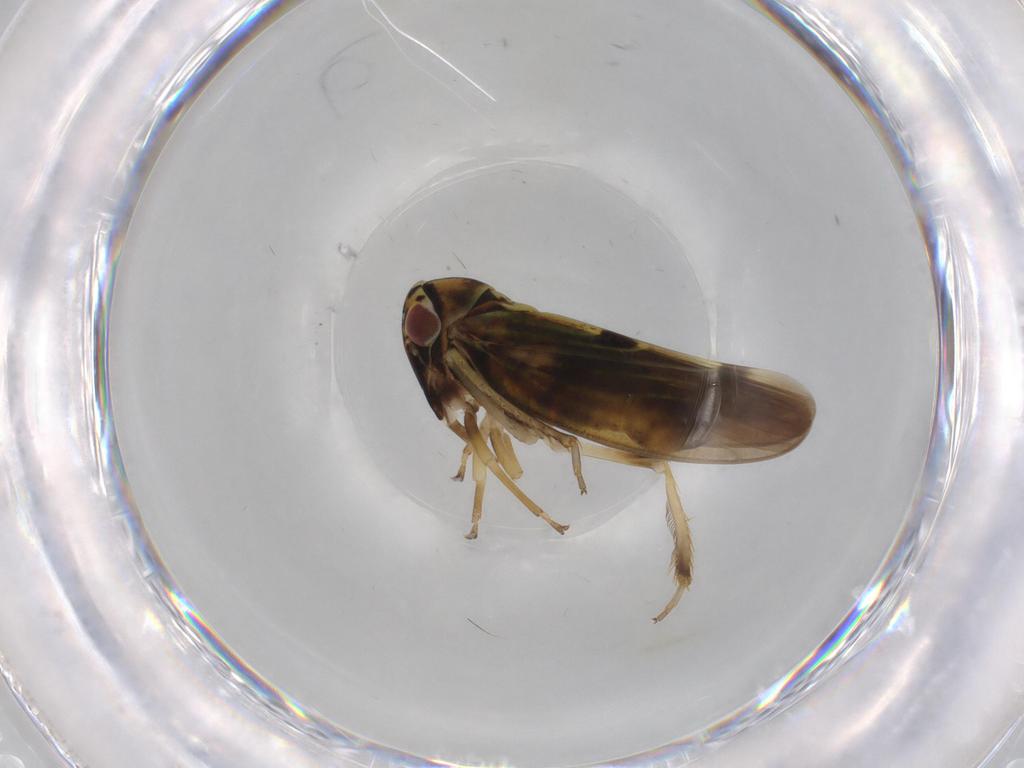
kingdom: Animalia
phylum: Arthropoda
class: Insecta
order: Hemiptera
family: Cicadellidae
